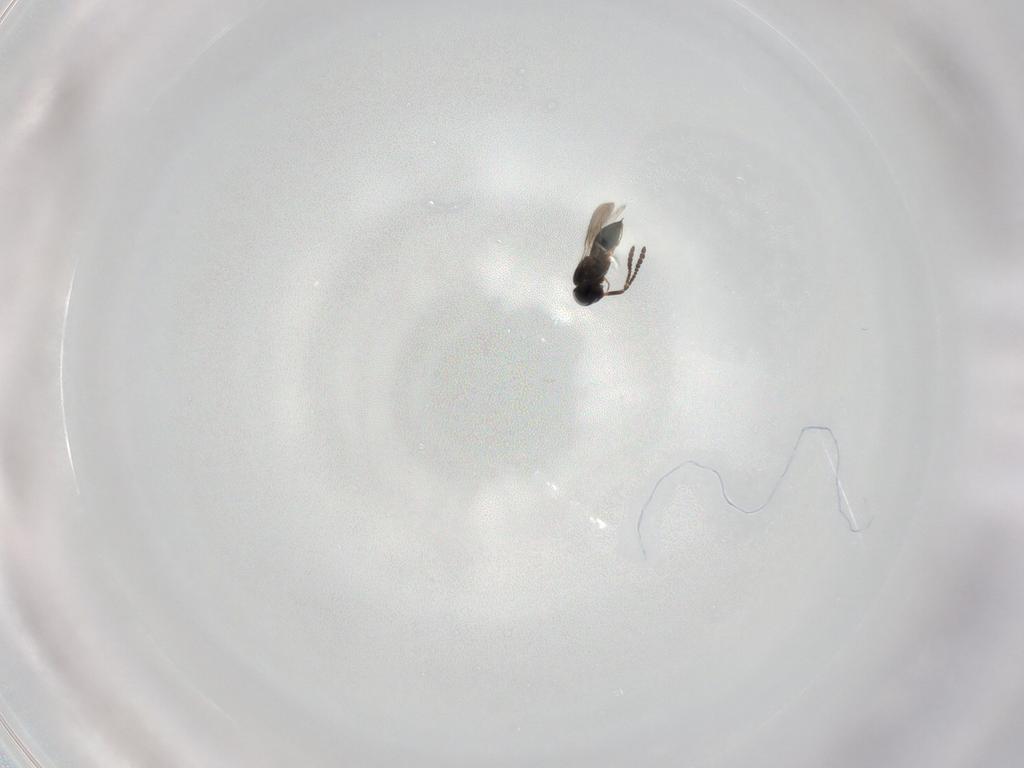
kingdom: Animalia
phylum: Arthropoda
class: Insecta
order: Hymenoptera
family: Scelionidae
